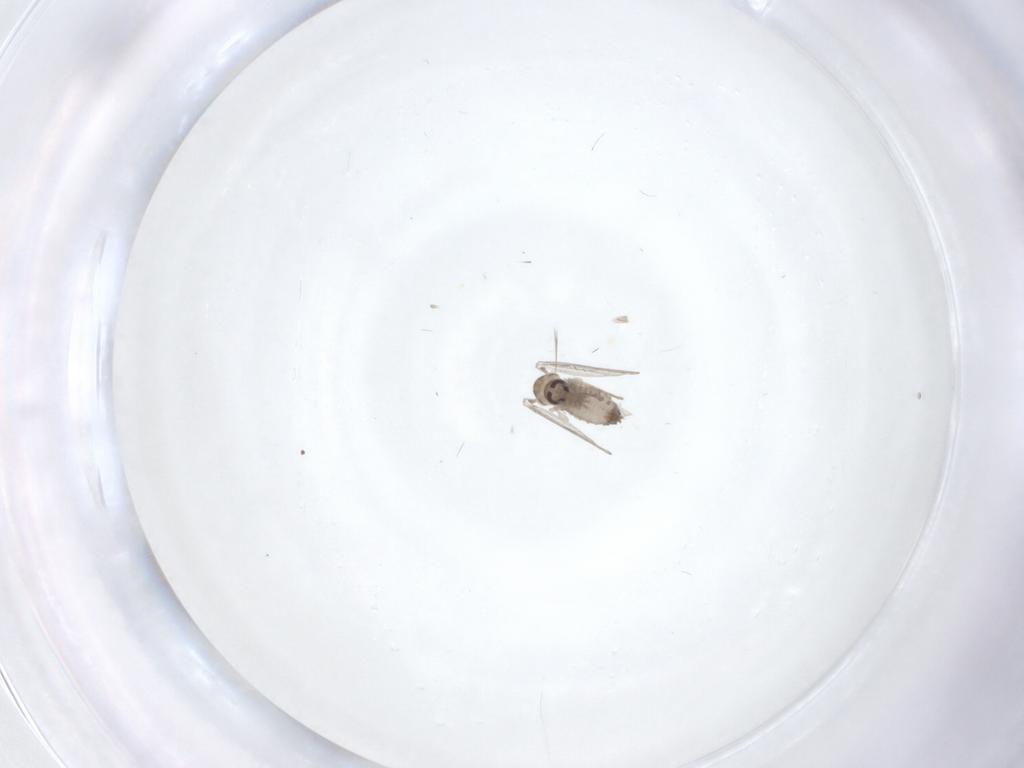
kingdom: Animalia
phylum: Arthropoda
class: Insecta
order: Diptera
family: Psychodidae
